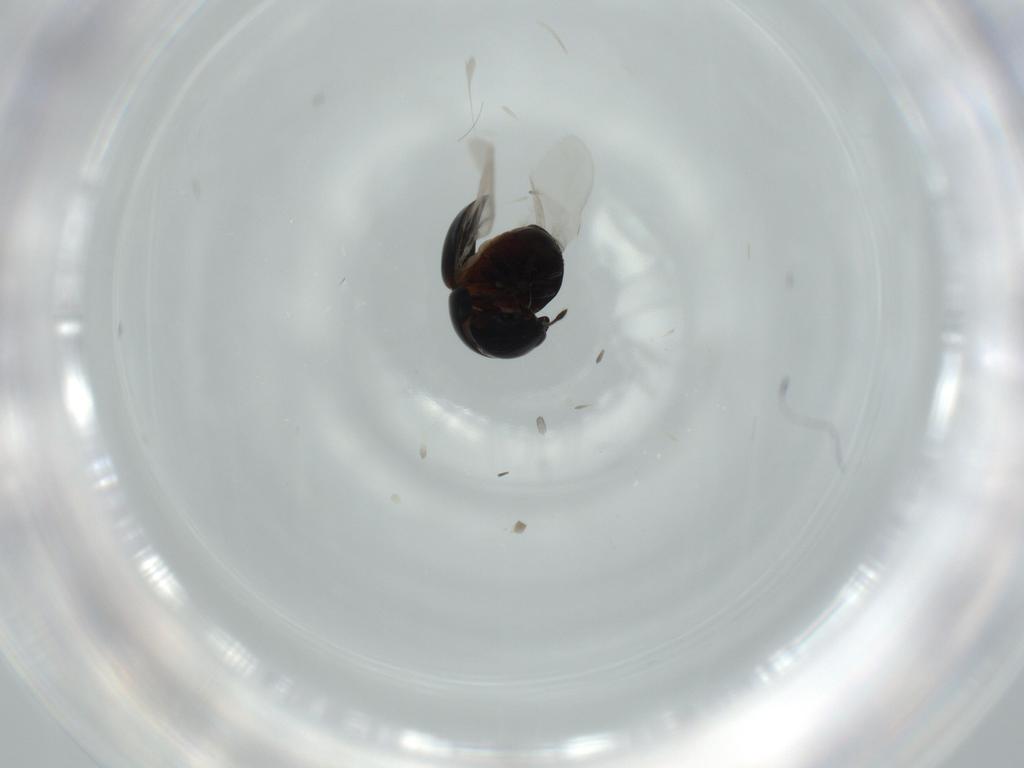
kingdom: Animalia
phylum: Arthropoda
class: Insecta
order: Coleoptera
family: Cybocephalidae
